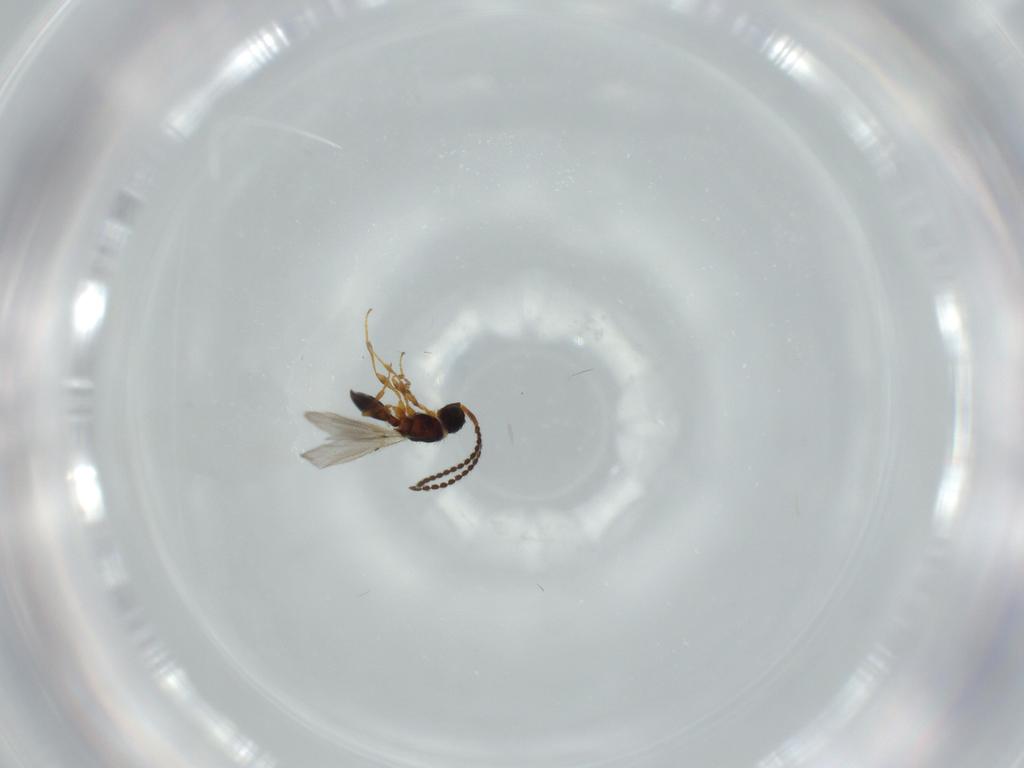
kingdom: Animalia
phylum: Arthropoda
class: Insecta
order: Hymenoptera
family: Diapriidae
